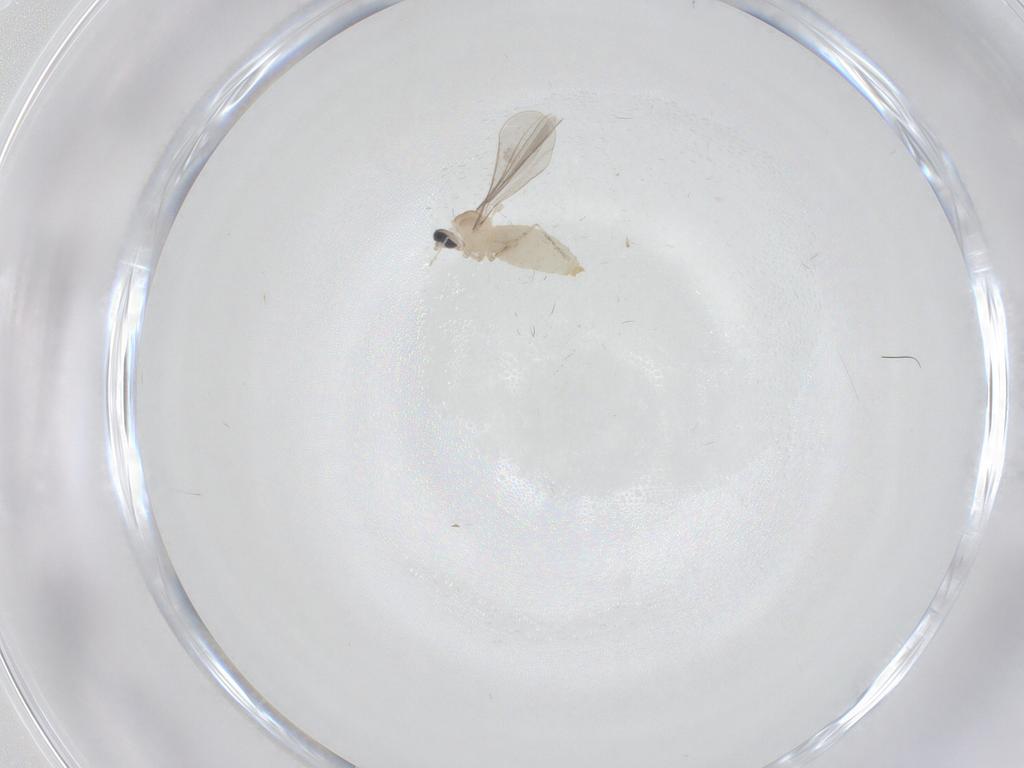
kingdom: Animalia
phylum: Arthropoda
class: Insecta
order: Diptera
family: Cecidomyiidae
